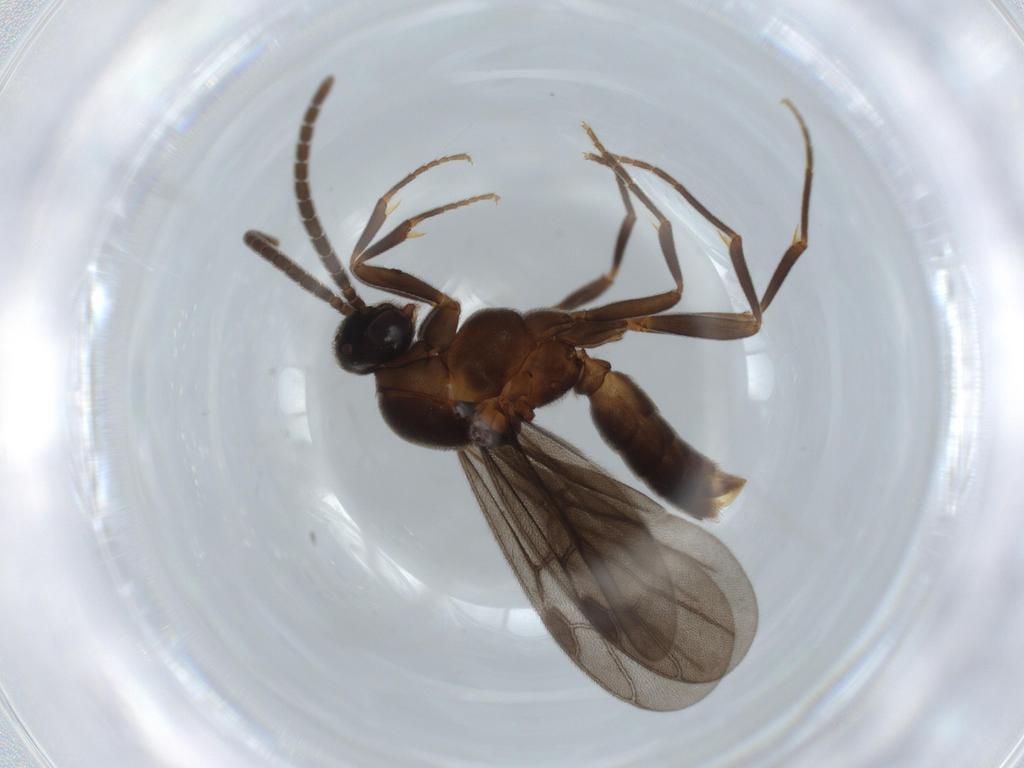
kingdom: Animalia
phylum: Arthropoda
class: Insecta
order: Hymenoptera
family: Formicidae
